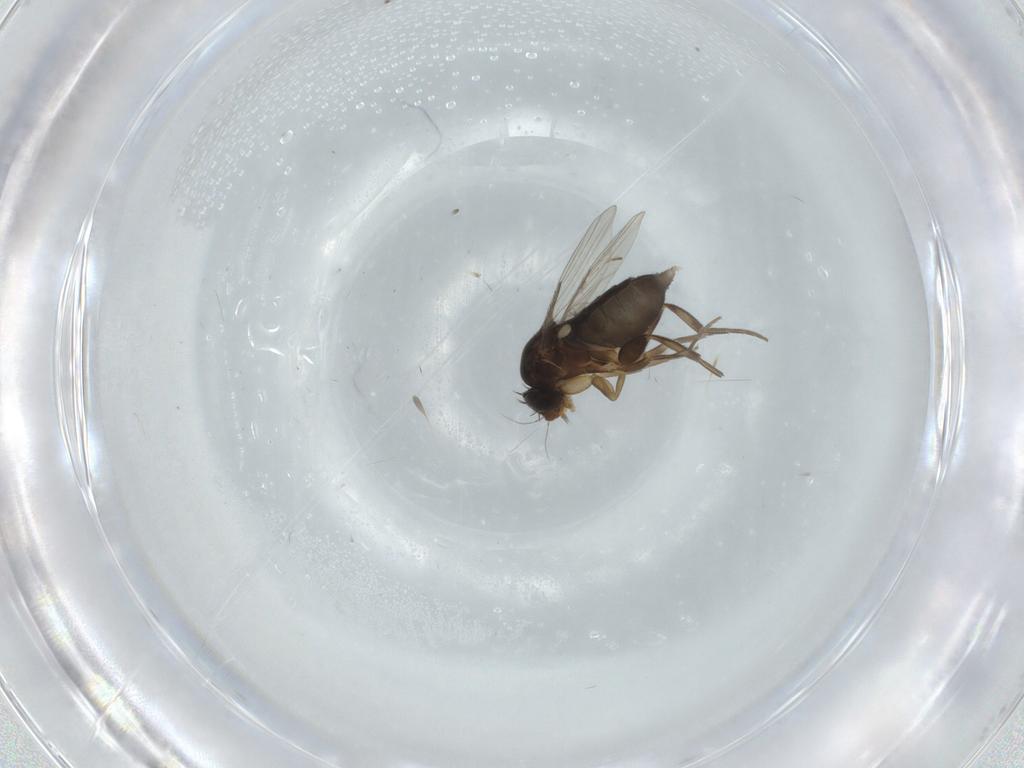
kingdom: Animalia
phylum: Arthropoda
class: Insecta
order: Diptera
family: Phoridae
